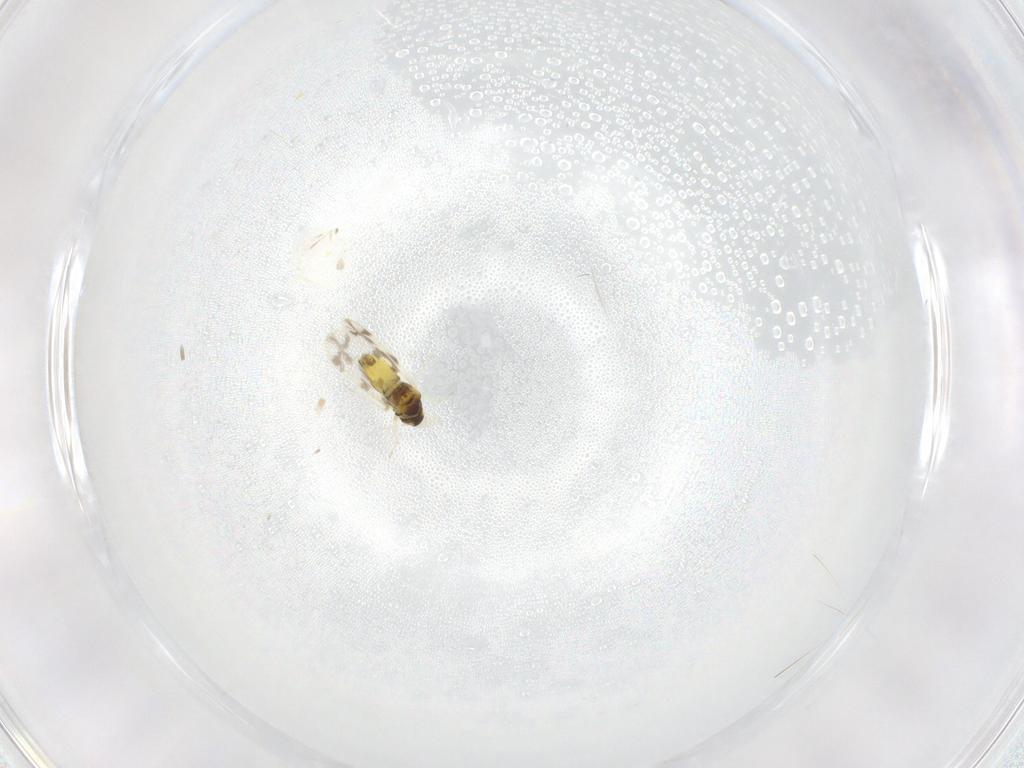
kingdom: Animalia
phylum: Arthropoda
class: Insecta
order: Hemiptera
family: Aleyrodidae
